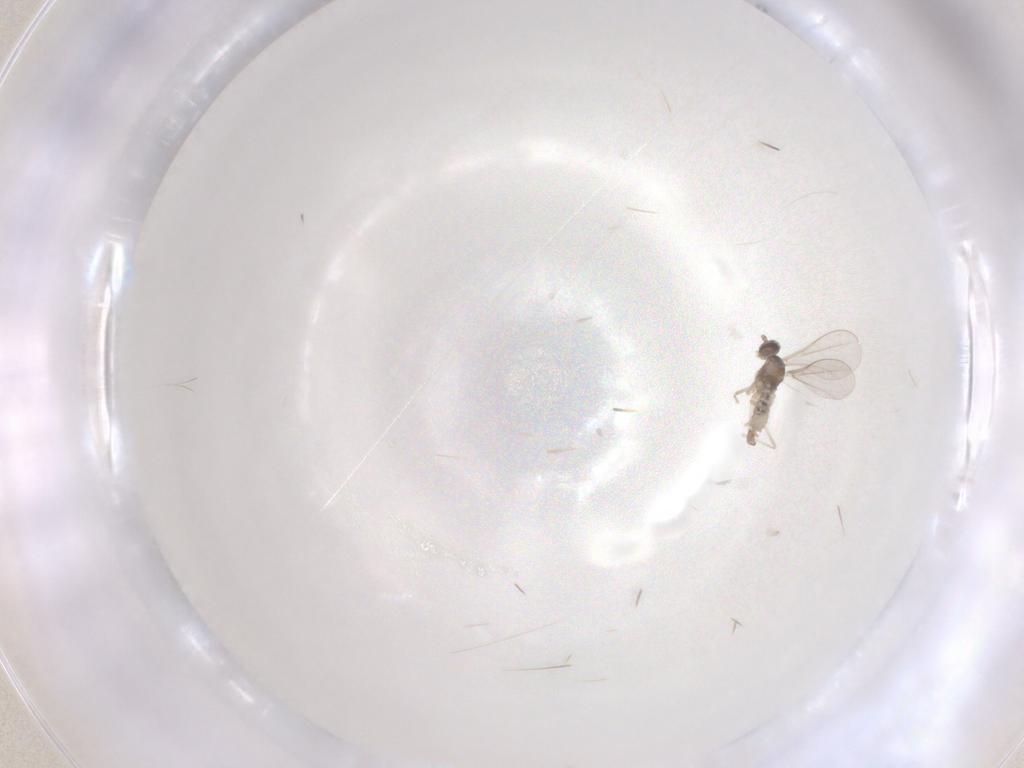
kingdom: Animalia
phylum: Arthropoda
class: Insecta
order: Diptera
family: Cecidomyiidae
